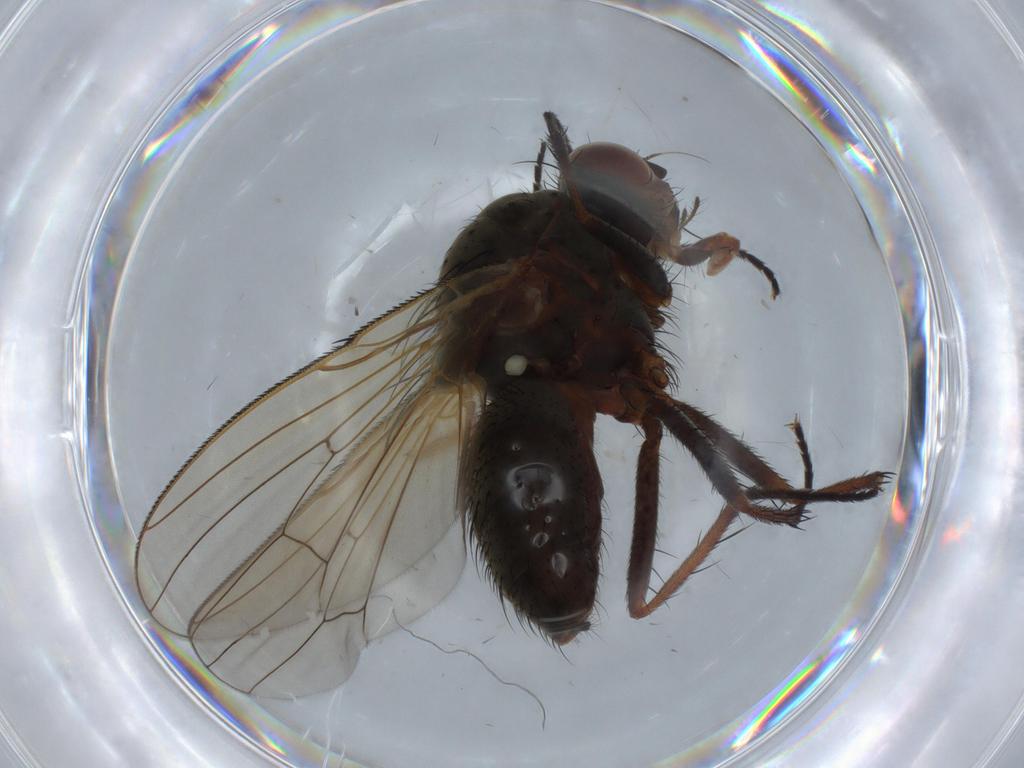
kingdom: Animalia
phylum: Arthropoda
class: Insecta
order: Diptera
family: Anthomyiidae
